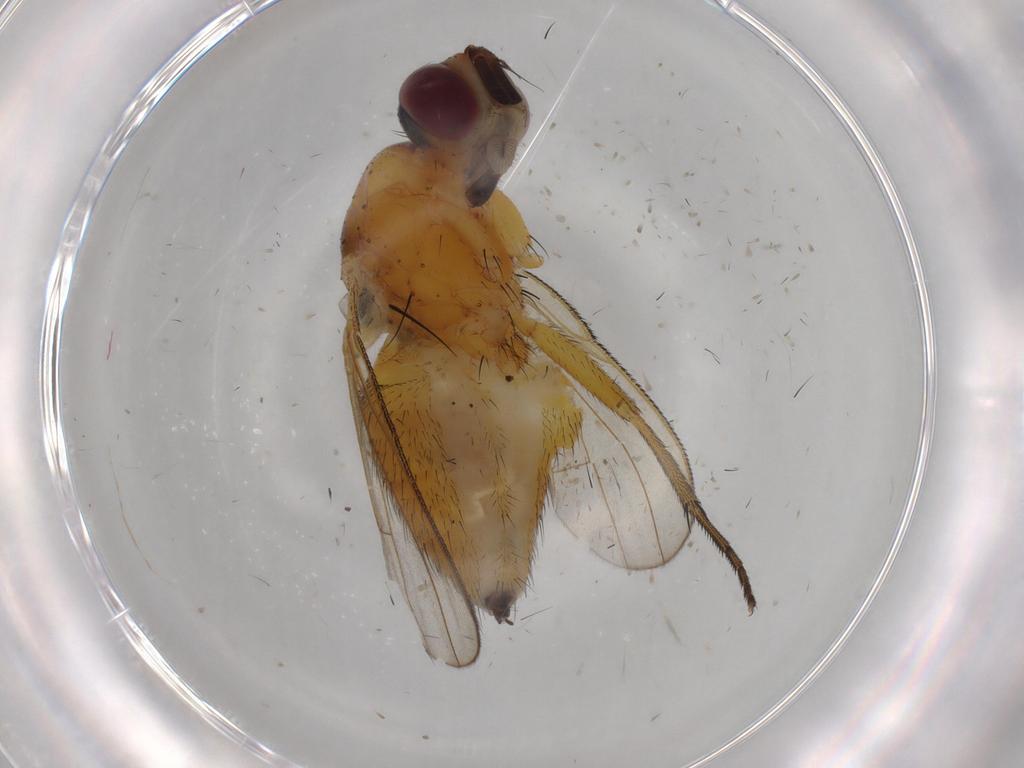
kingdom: Animalia
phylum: Arthropoda
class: Insecta
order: Diptera
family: Muscidae
